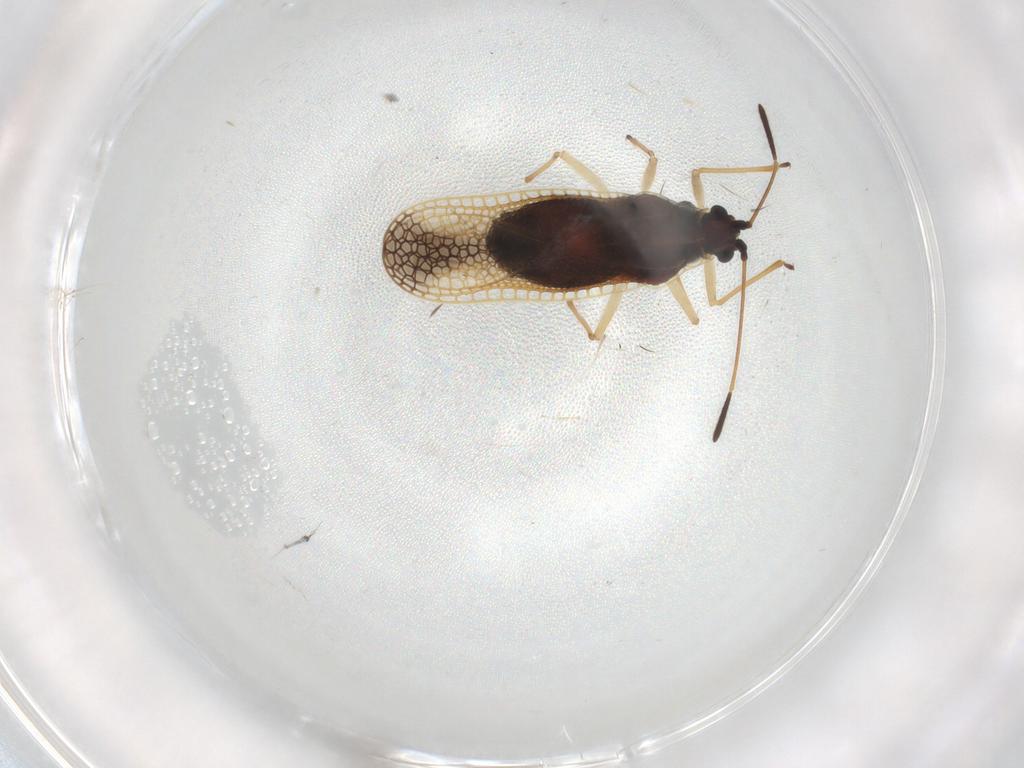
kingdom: Animalia
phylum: Arthropoda
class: Insecta
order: Hemiptera
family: Tingidae
